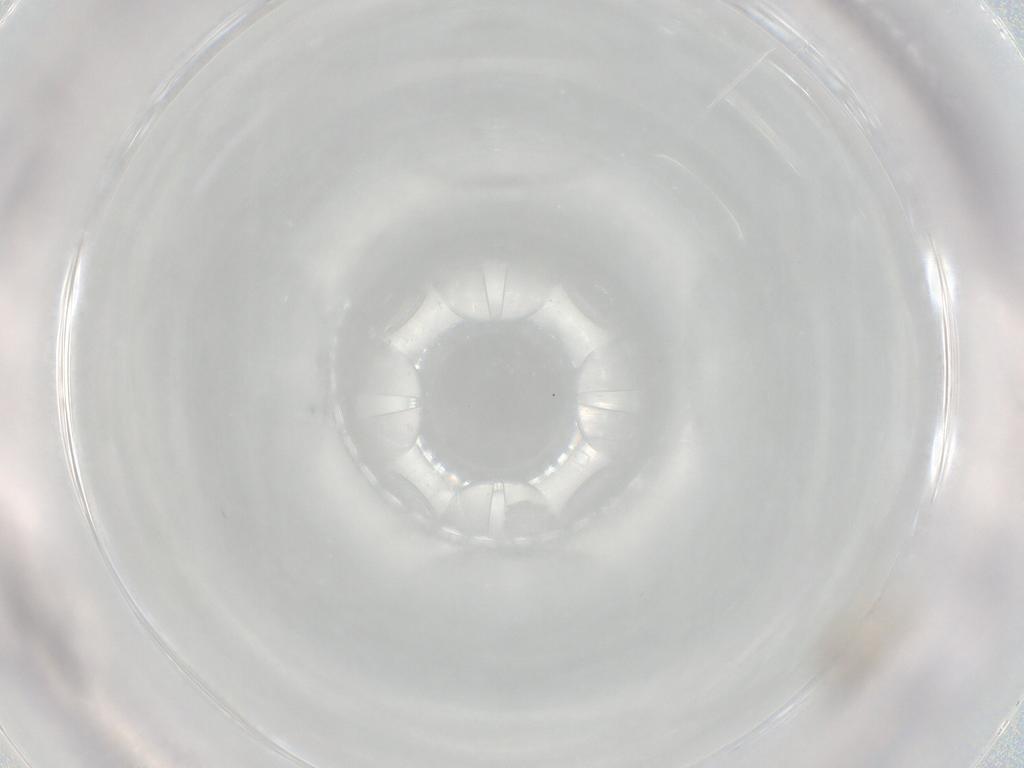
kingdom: Animalia
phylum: Arthropoda
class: Insecta
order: Diptera
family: Cecidomyiidae
